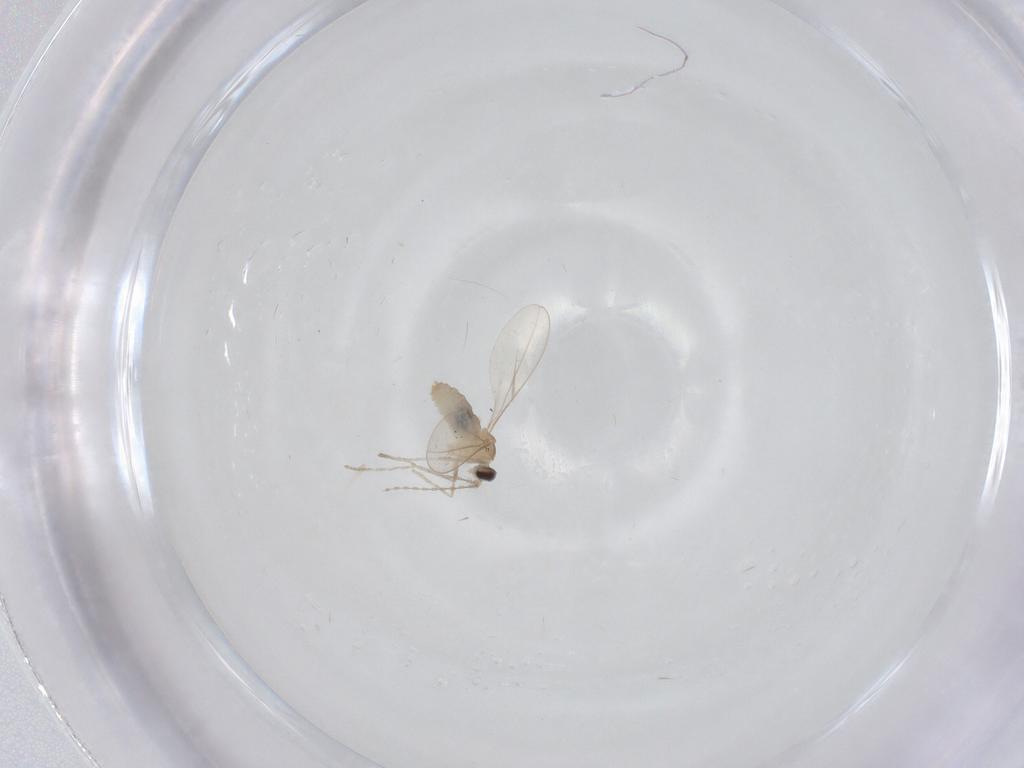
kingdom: Animalia
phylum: Arthropoda
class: Insecta
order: Diptera
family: Cecidomyiidae
